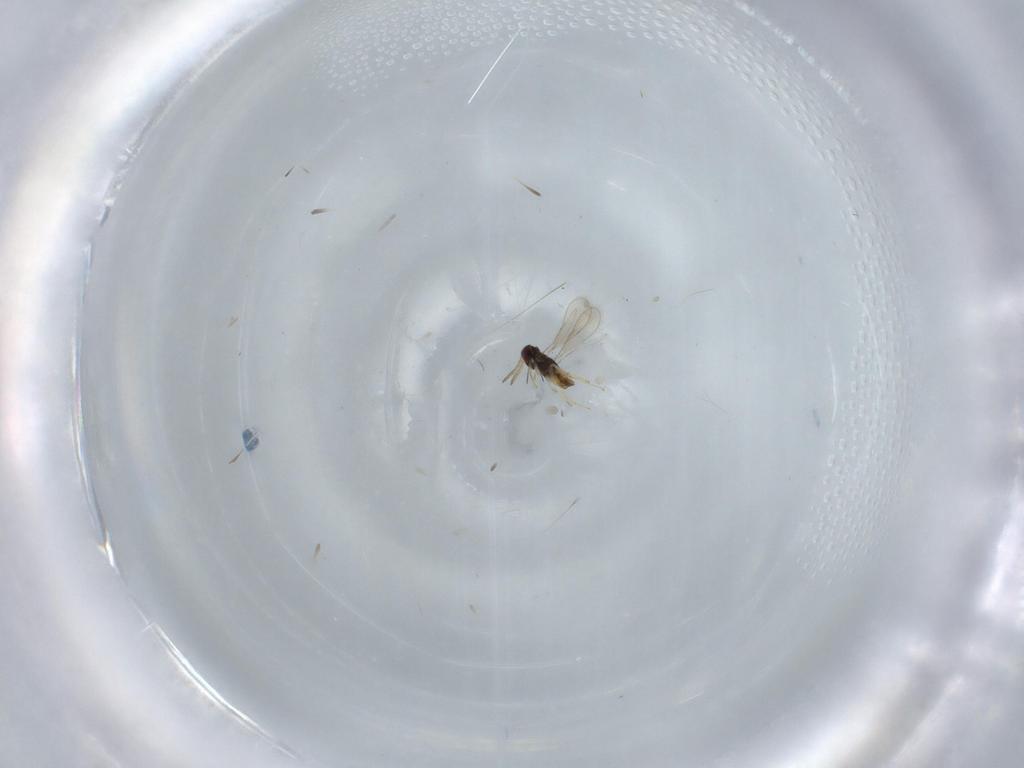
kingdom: Animalia
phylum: Arthropoda
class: Insecta
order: Hymenoptera
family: Aphelinidae
